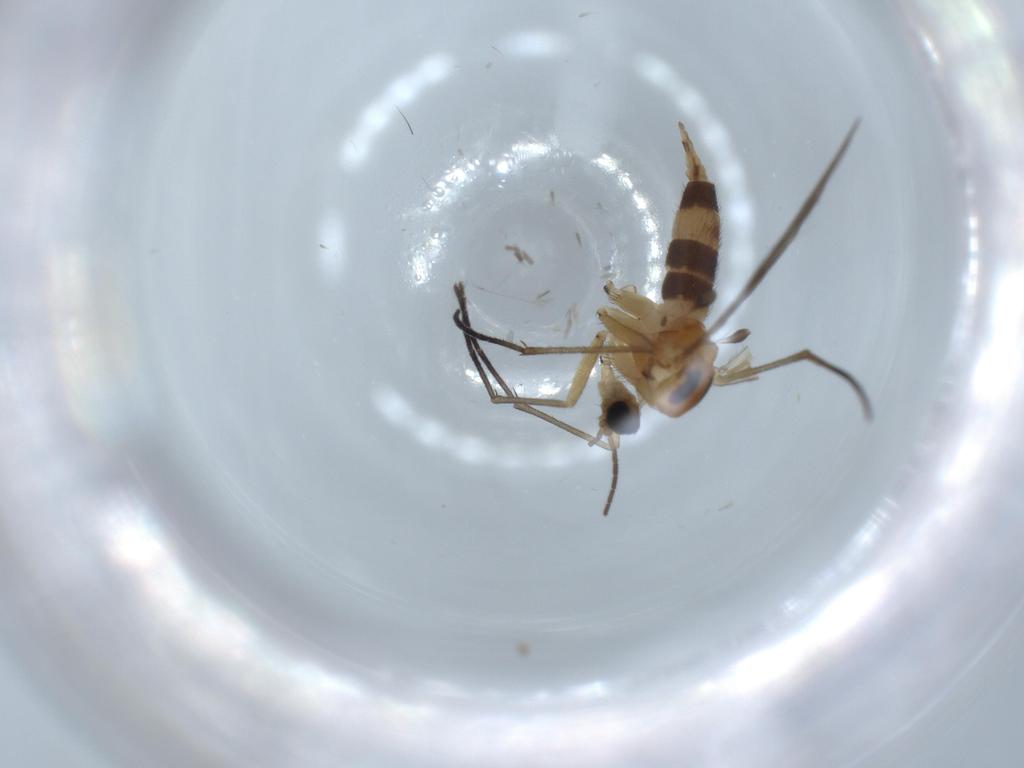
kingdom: Animalia
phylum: Arthropoda
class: Insecta
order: Diptera
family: Sciaridae
